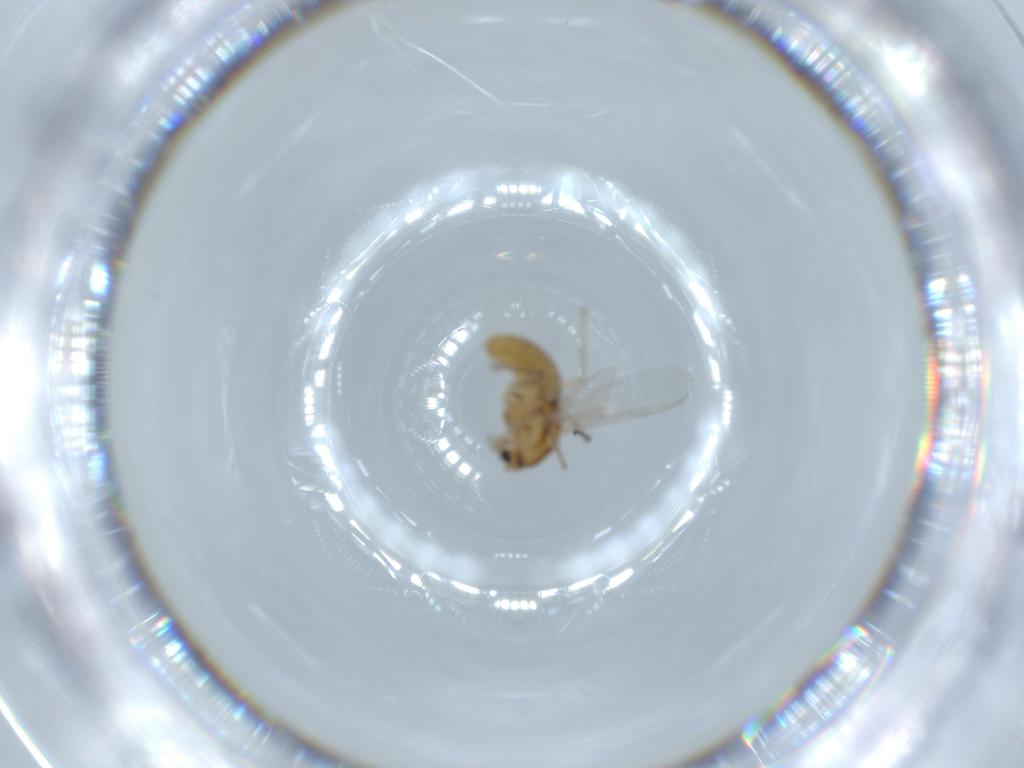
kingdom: Animalia
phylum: Arthropoda
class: Insecta
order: Diptera
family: Chironomidae
